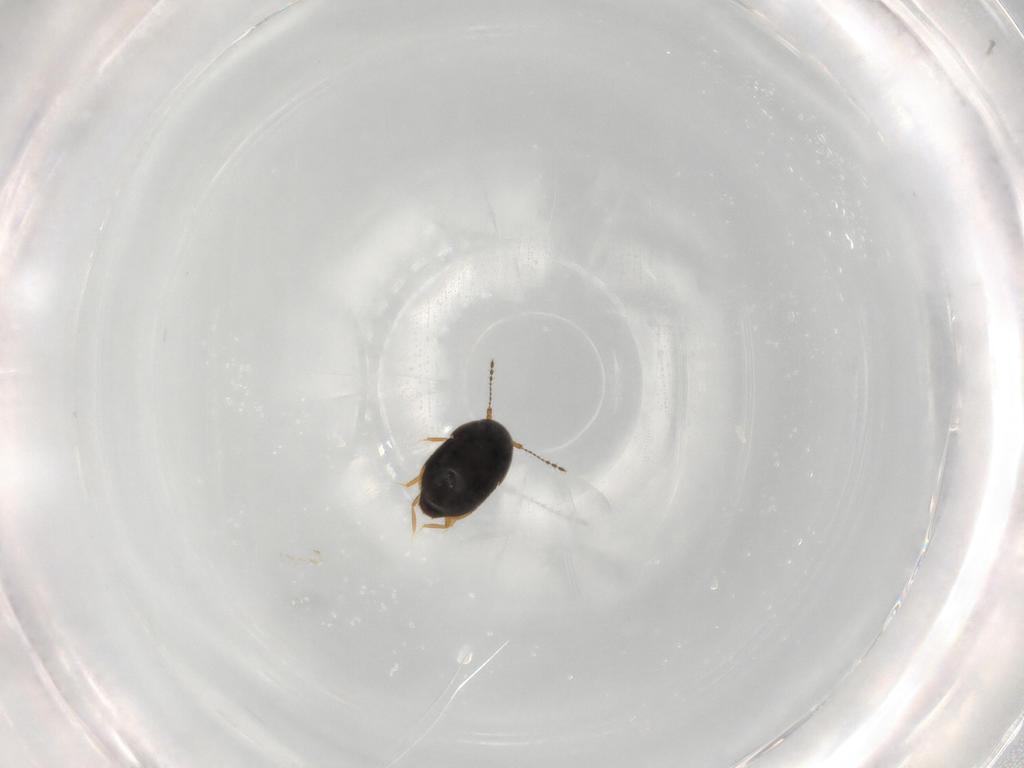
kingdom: Animalia
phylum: Arthropoda
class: Insecta
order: Coleoptera
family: Ptiliidae
